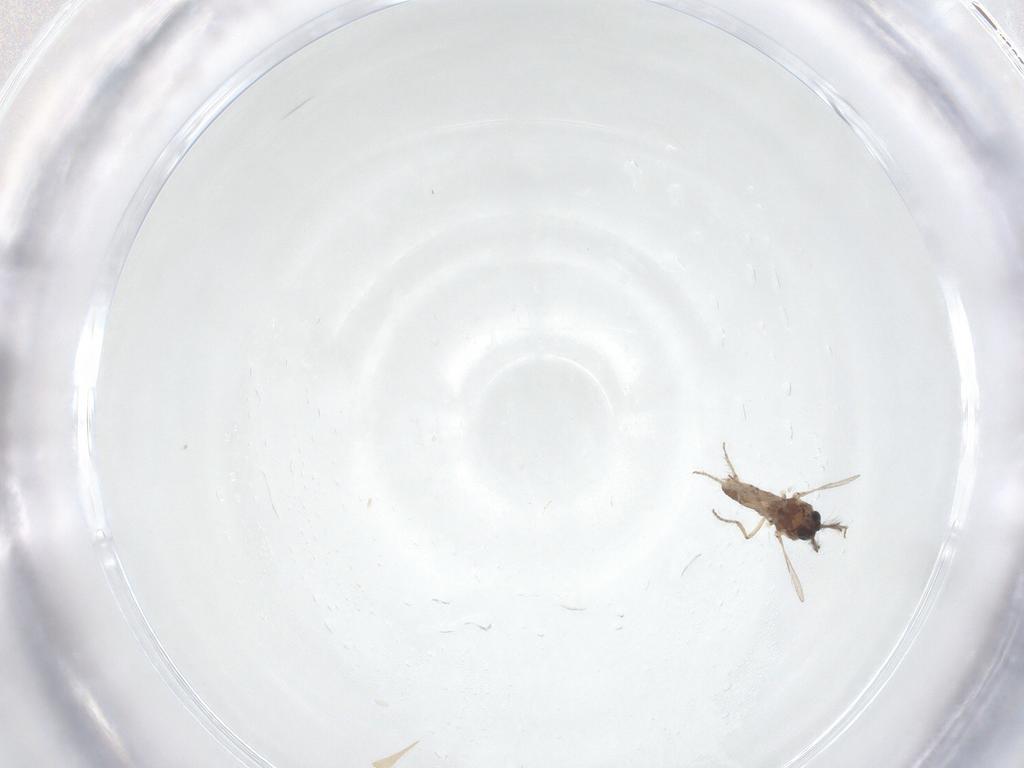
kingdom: Animalia
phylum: Arthropoda
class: Insecta
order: Diptera
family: Ceratopogonidae
